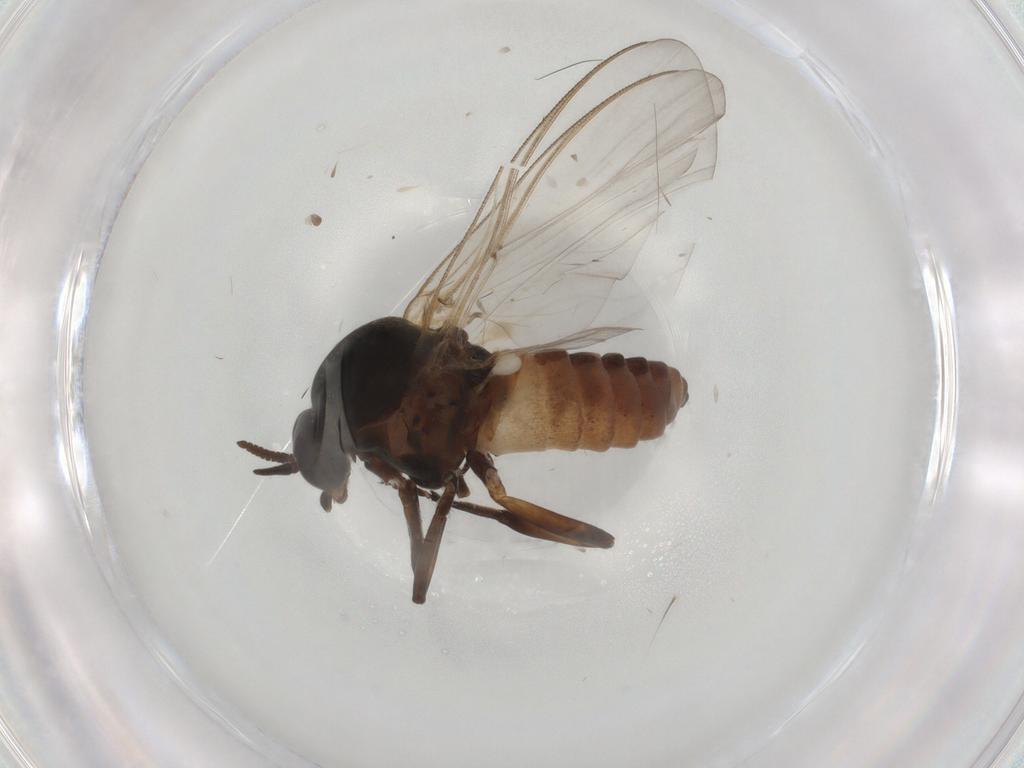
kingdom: Animalia
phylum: Arthropoda
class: Insecta
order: Diptera
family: Simuliidae
